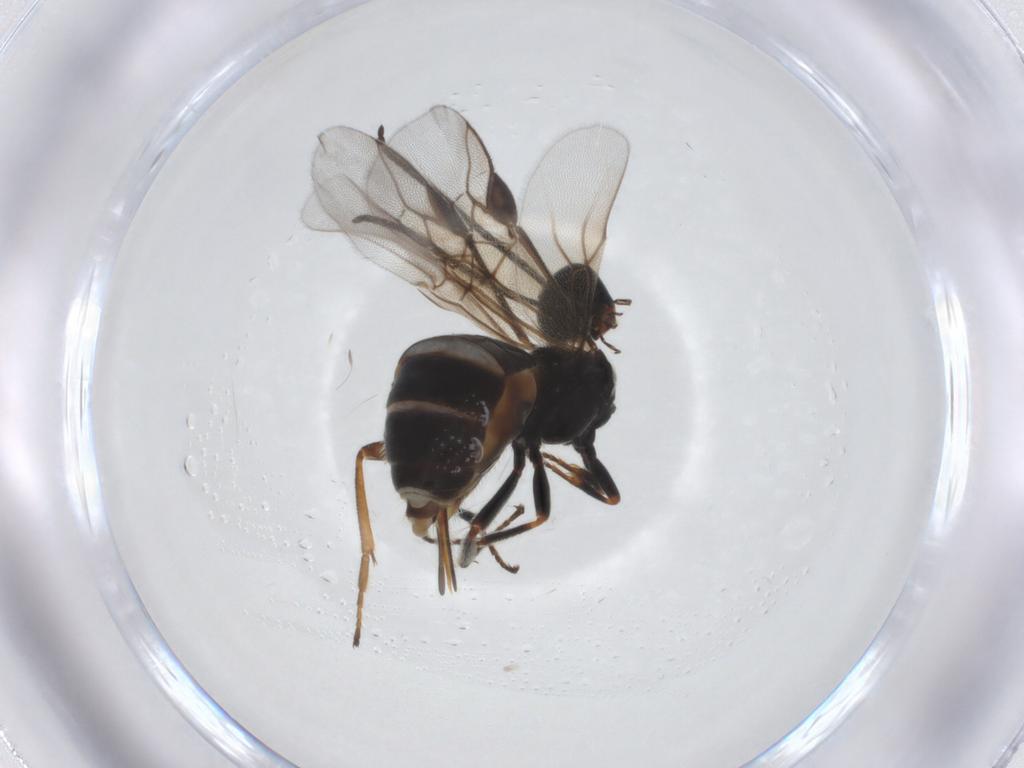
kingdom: Animalia
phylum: Arthropoda
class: Insecta
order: Hymenoptera
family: Braconidae
